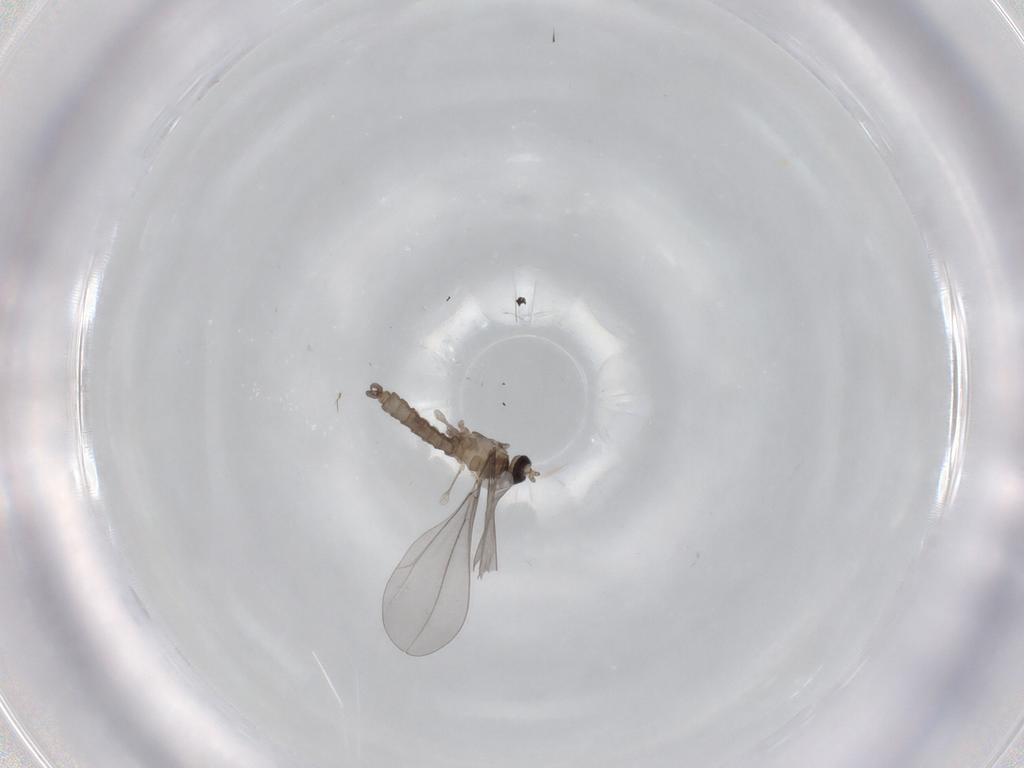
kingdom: Animalia
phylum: Arthropoda
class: Insecta
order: Diptera
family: Cecidomyiidae
